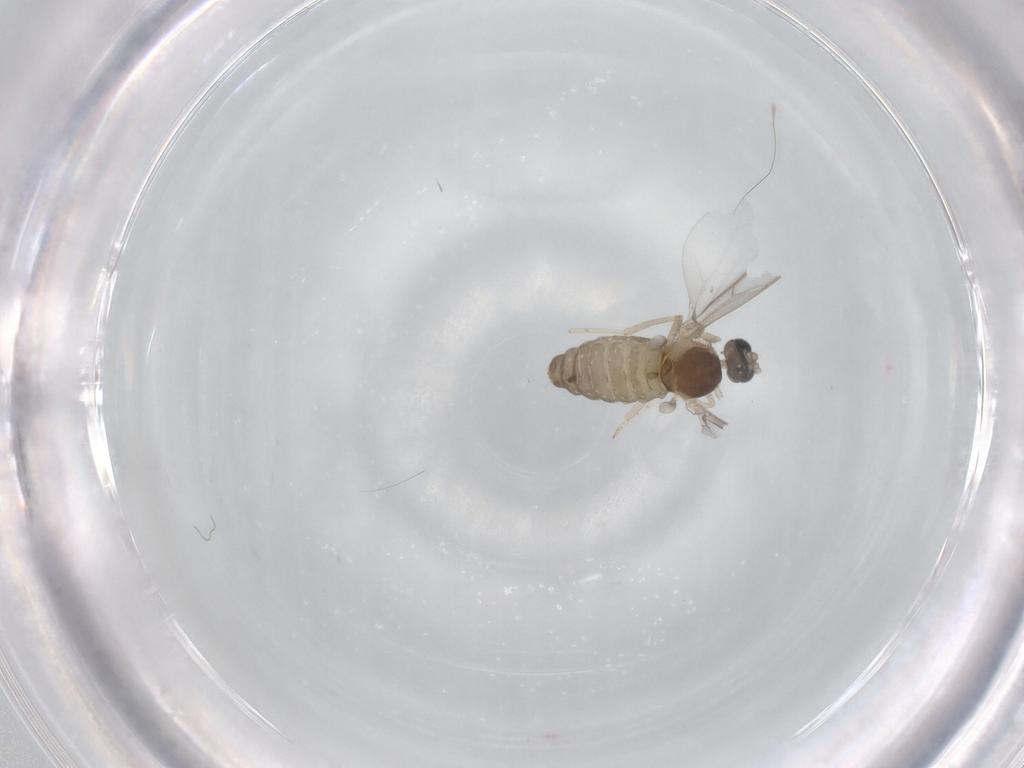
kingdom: Animalia
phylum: Arthropoda
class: Insecta
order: Diptera
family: Cecidomyiidae
